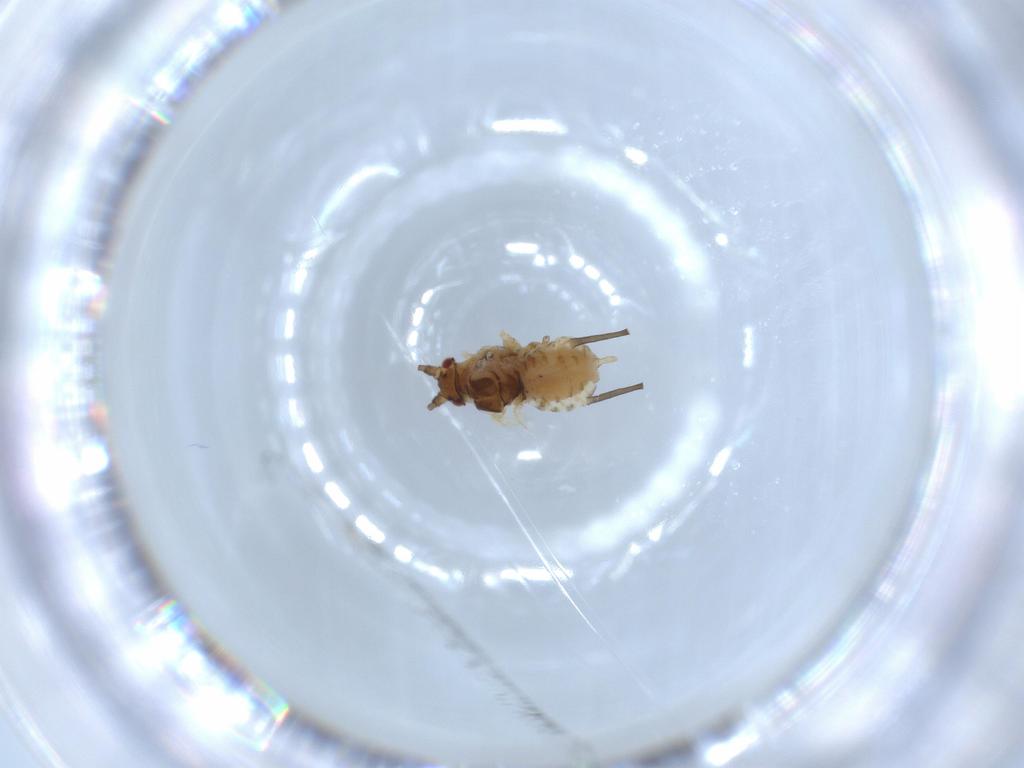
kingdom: Animalia
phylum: Arthropoda
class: Insecta
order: Hemiptera
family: Aphididae
